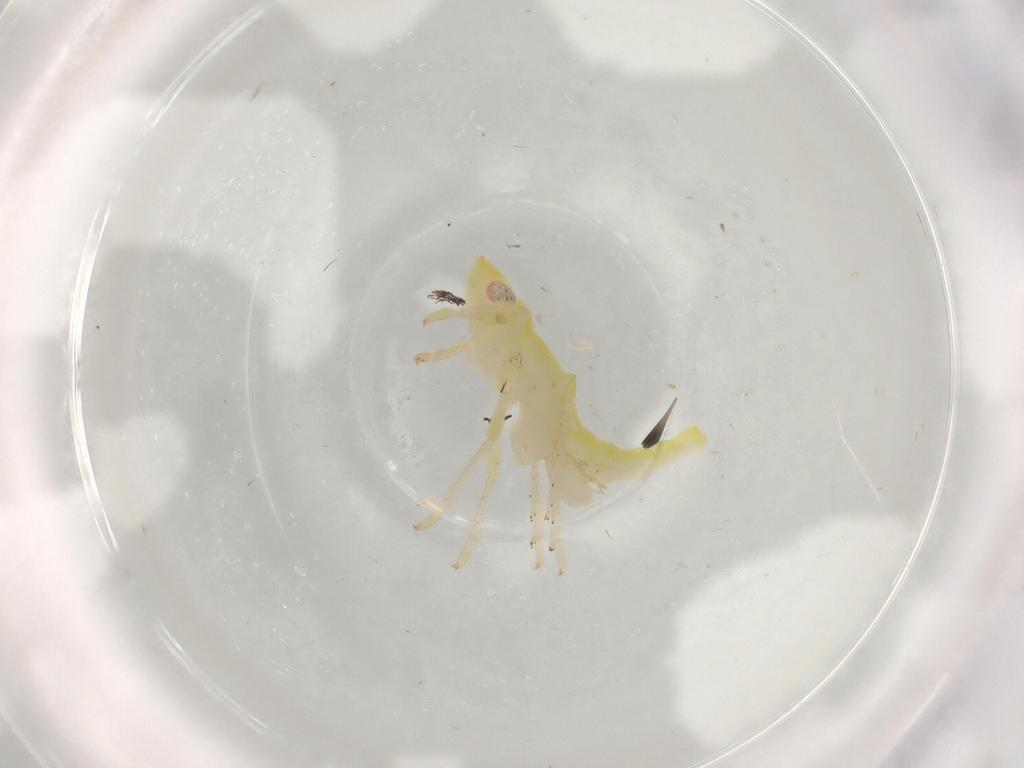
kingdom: Animalia
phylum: Arthropoda
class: Insecta
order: Hemiptera
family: Fulgoroidea_incertae_sedis
